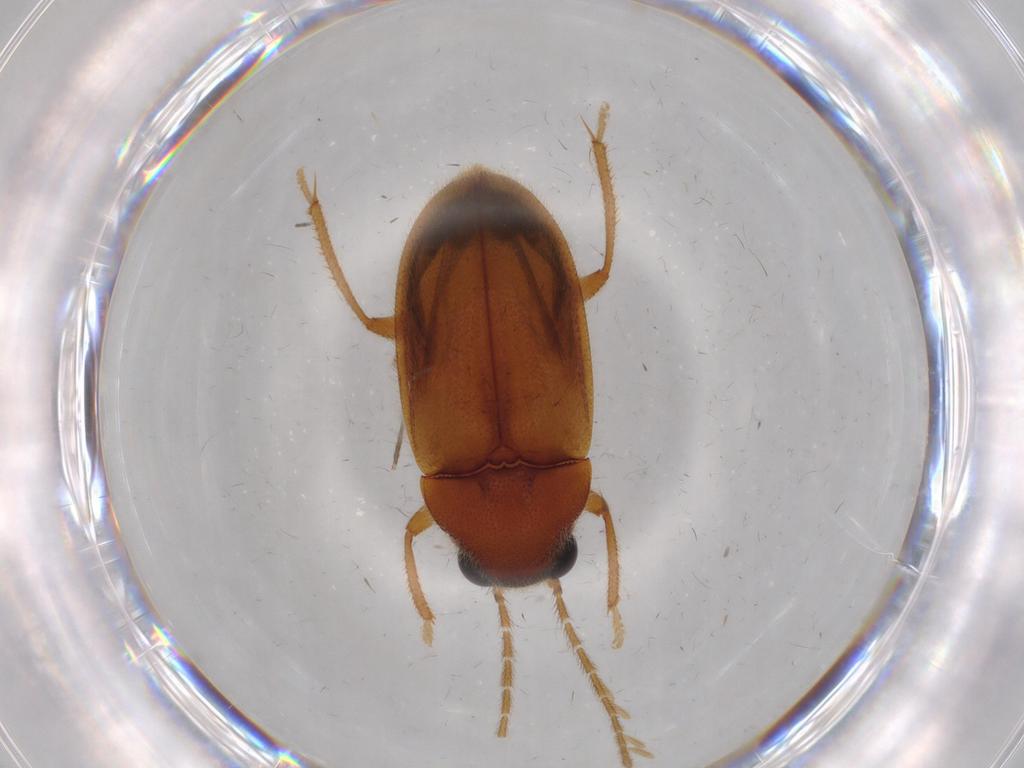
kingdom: Animalia
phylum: Arthropoda
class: Insecta
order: Coleoptera
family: Ptilodactylidae
